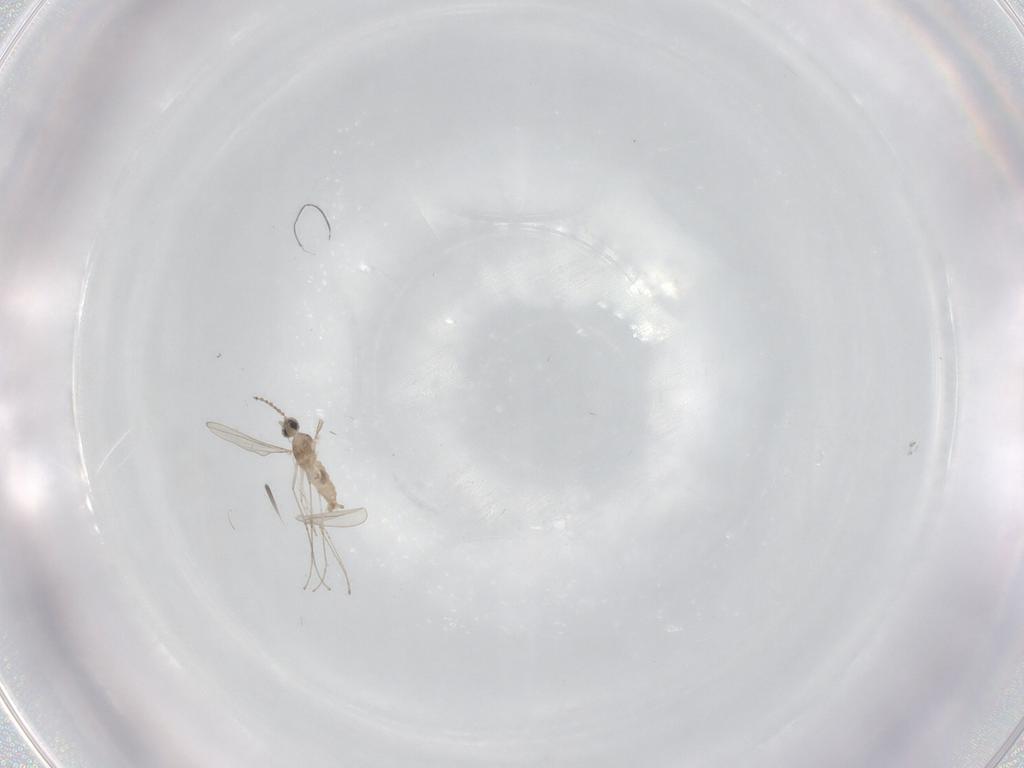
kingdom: Animalia
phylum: Arthropoda
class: Insecta
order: Diptera
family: Cecidomyiidae
